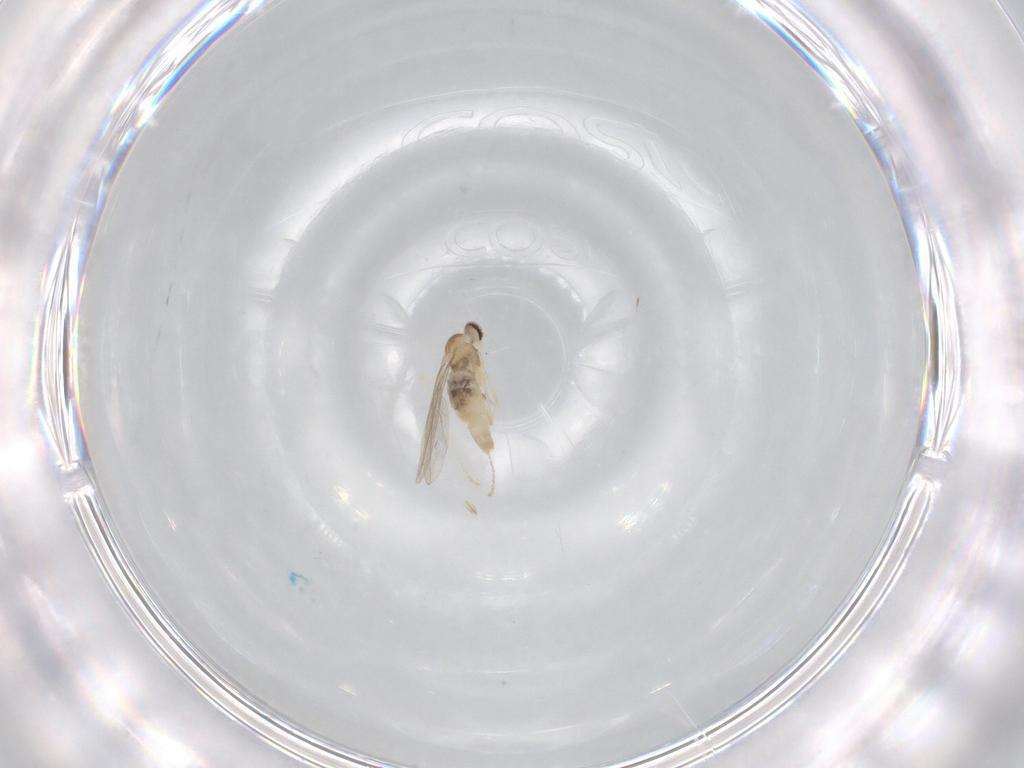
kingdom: Animalia
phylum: Arthropoda
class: Insecta
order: Diptera
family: Cecidomyiidae
